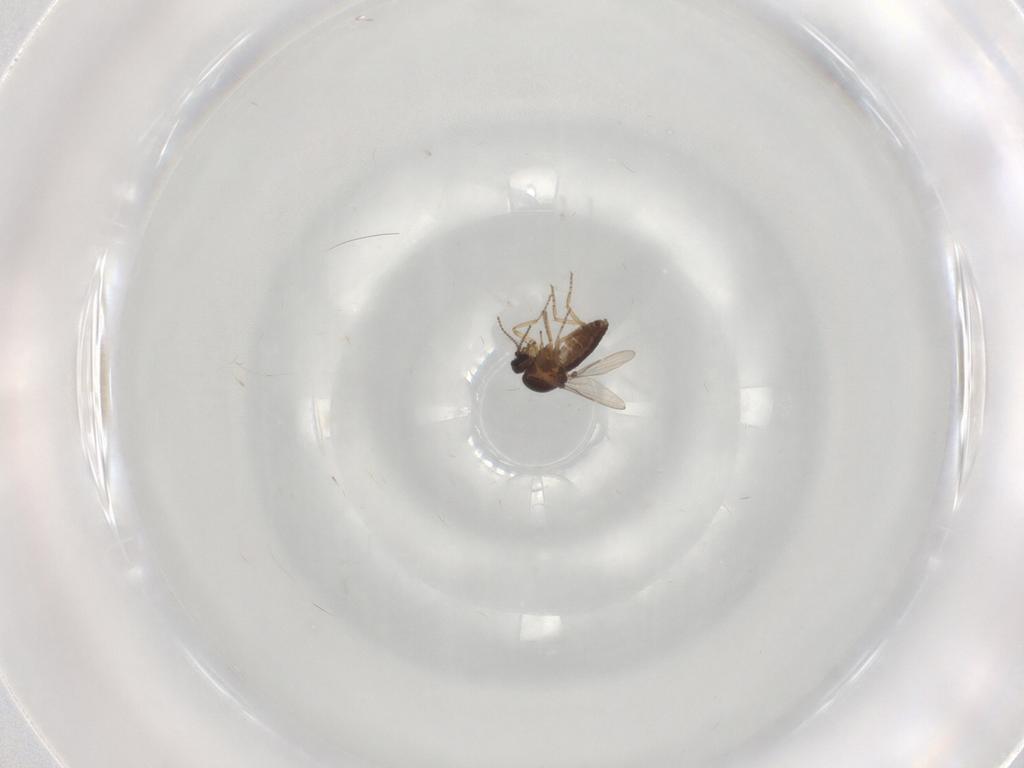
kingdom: Animalia
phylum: Arthropoda
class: Insecta
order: Diptera
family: Ceratopogonidae
